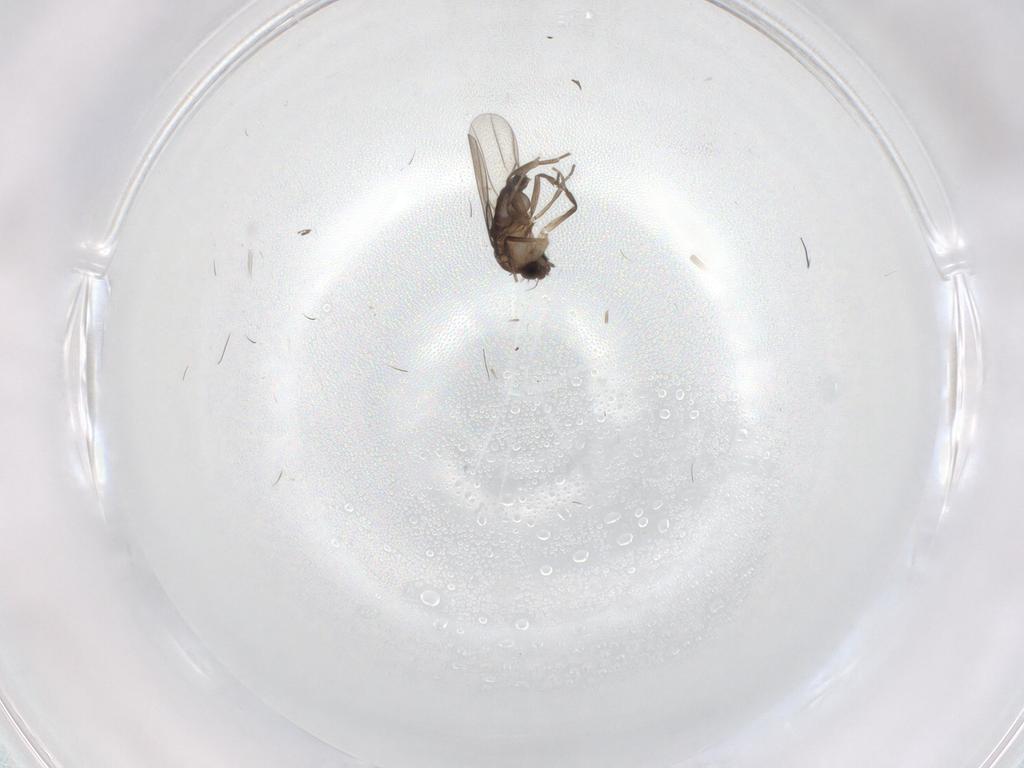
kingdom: Animalia
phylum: Arthropoda
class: Insecta
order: Diptera
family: Phoridae
